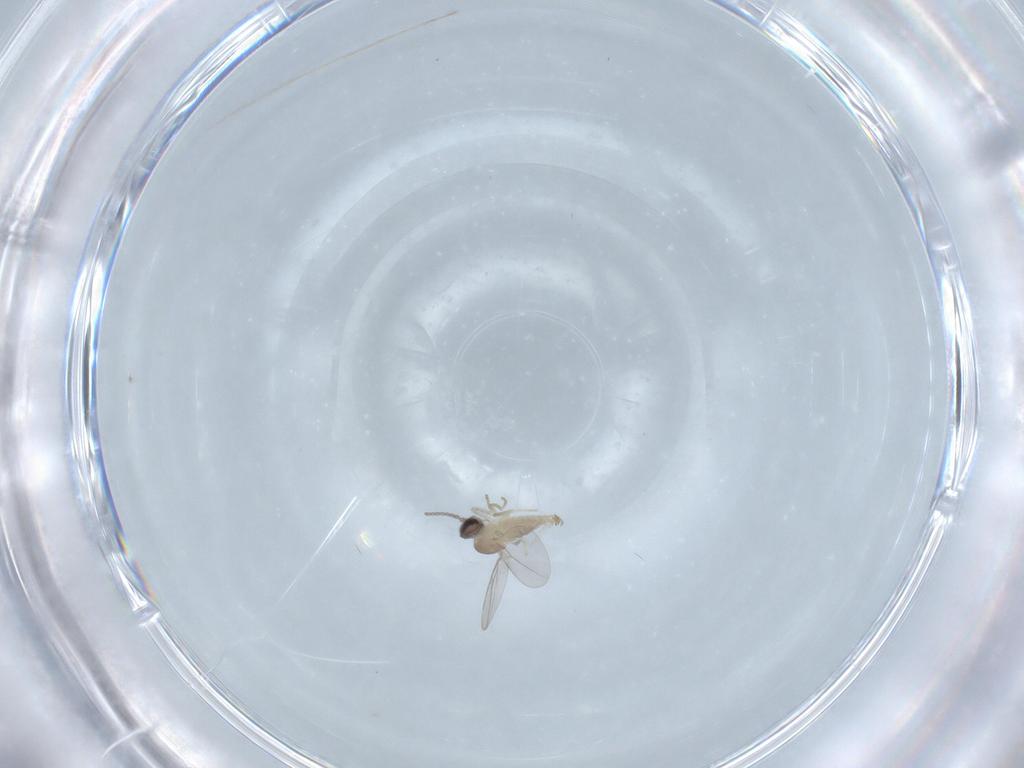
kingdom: Animalia
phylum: Arthropoda
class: Insecta
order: Diptera
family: Cecidomyiidae
